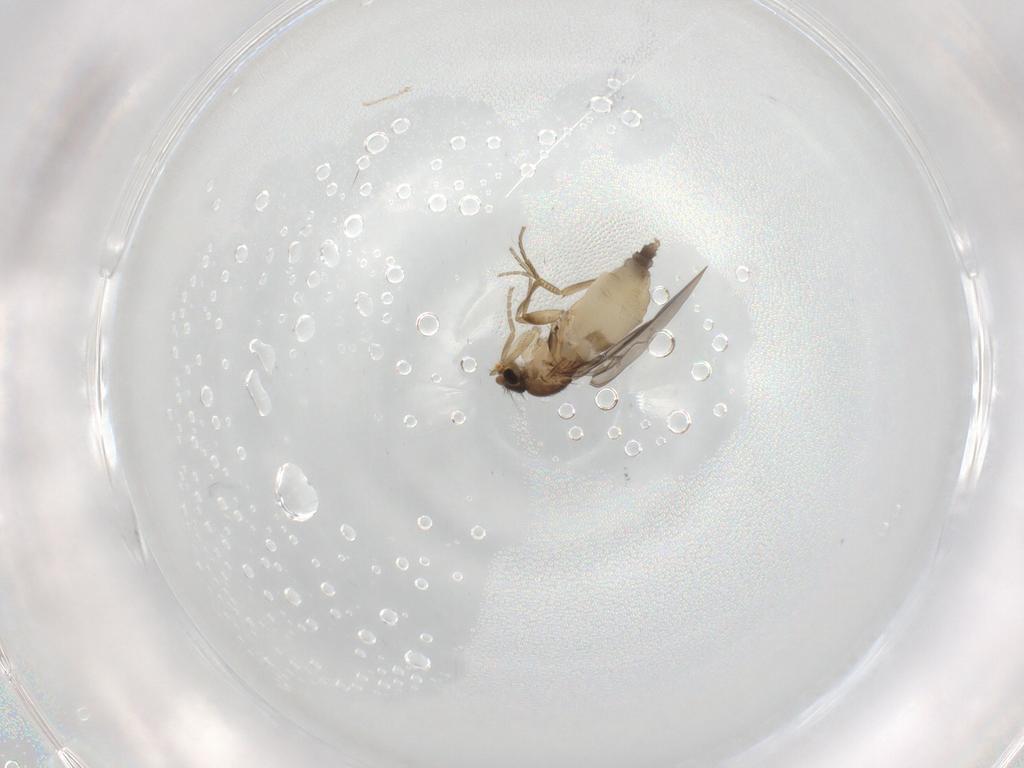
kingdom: Animalia
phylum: Arthropoda
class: Insecta
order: Diptera
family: Phoridae
